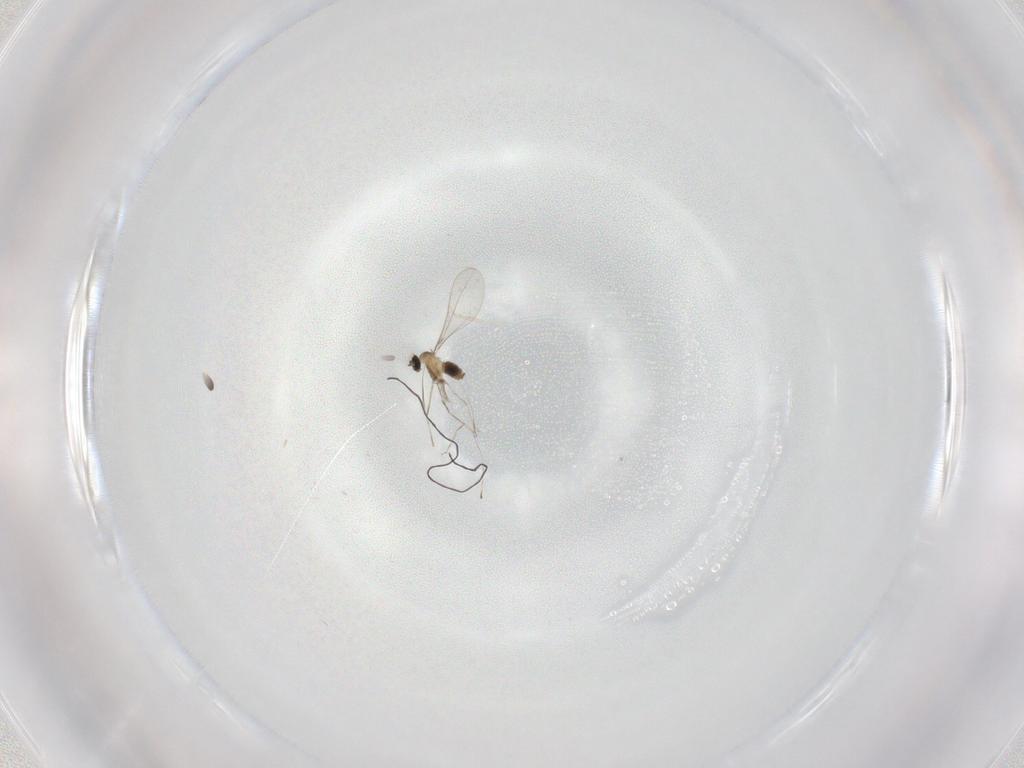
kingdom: Animalia
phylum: Arthropoda
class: Insecta
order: Diptera
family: Cecidomyiidae
